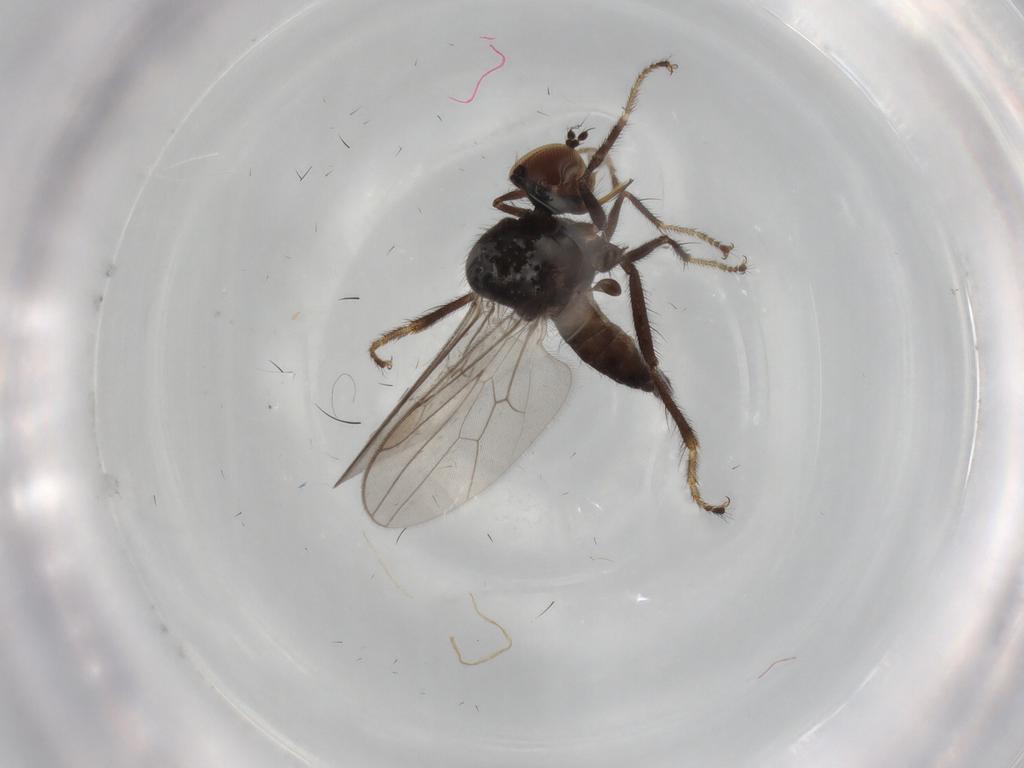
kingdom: Animalia
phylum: Arthropoda
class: Insecta
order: Diptera
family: Hybotidae
